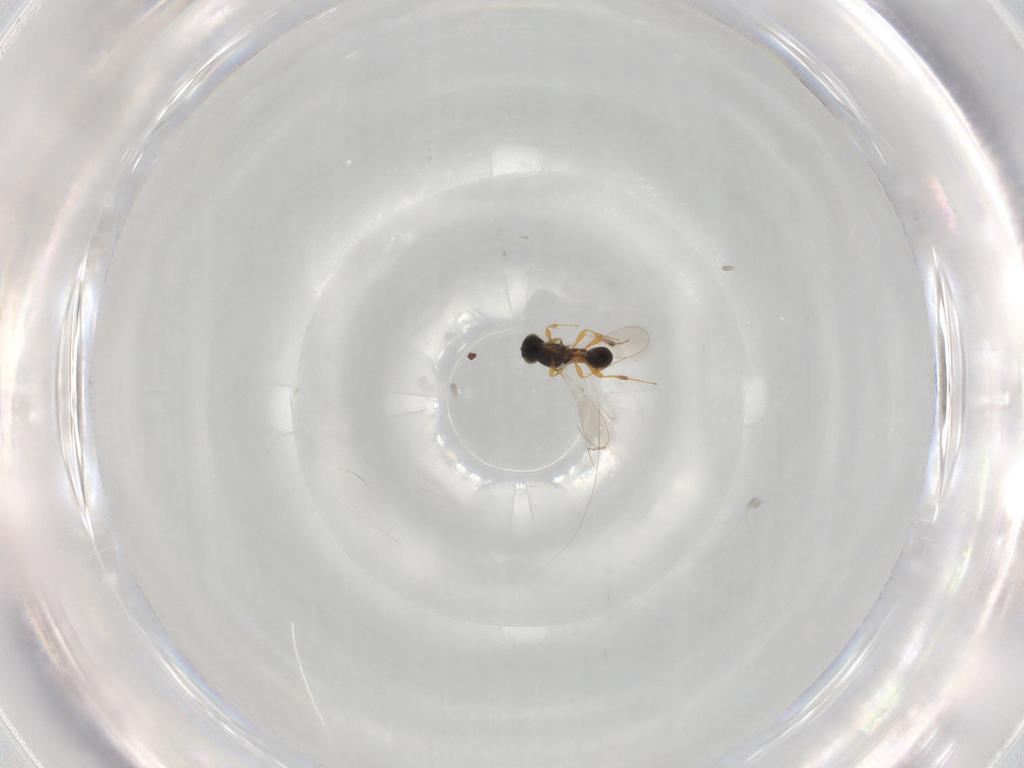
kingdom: Animalia
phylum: Arthropoda
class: Insecta
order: Hymenoptera
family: Platygastridae
